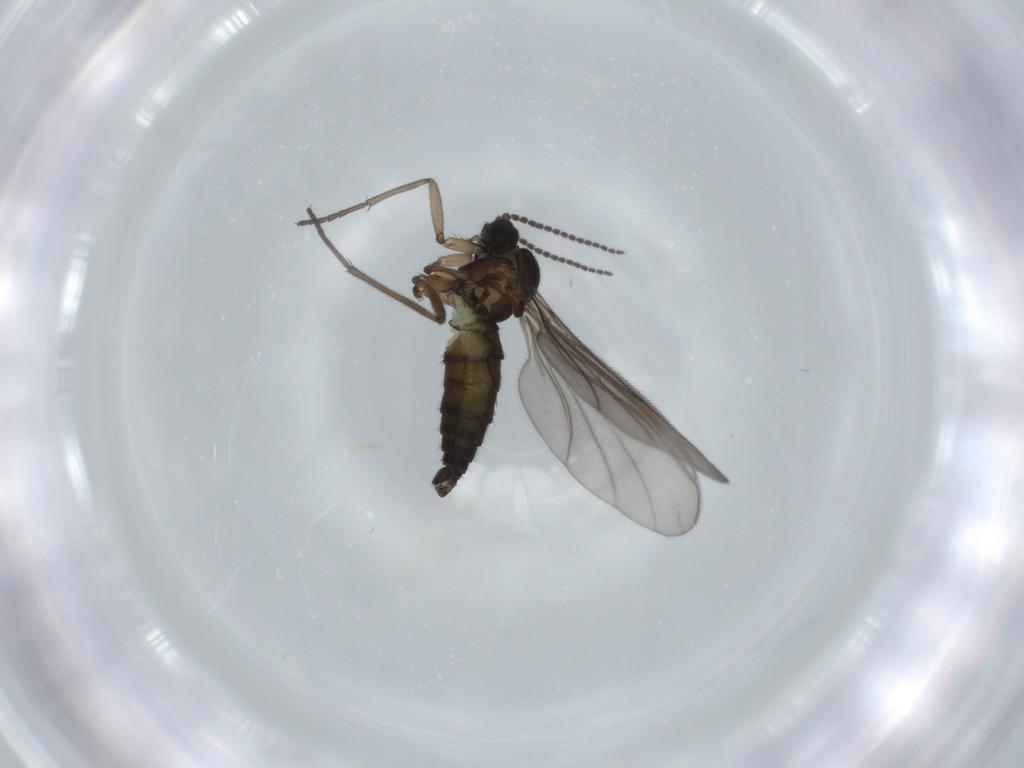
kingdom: Animalia
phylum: Arthropoda
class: Insecta
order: Diptera
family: Sciaridae
